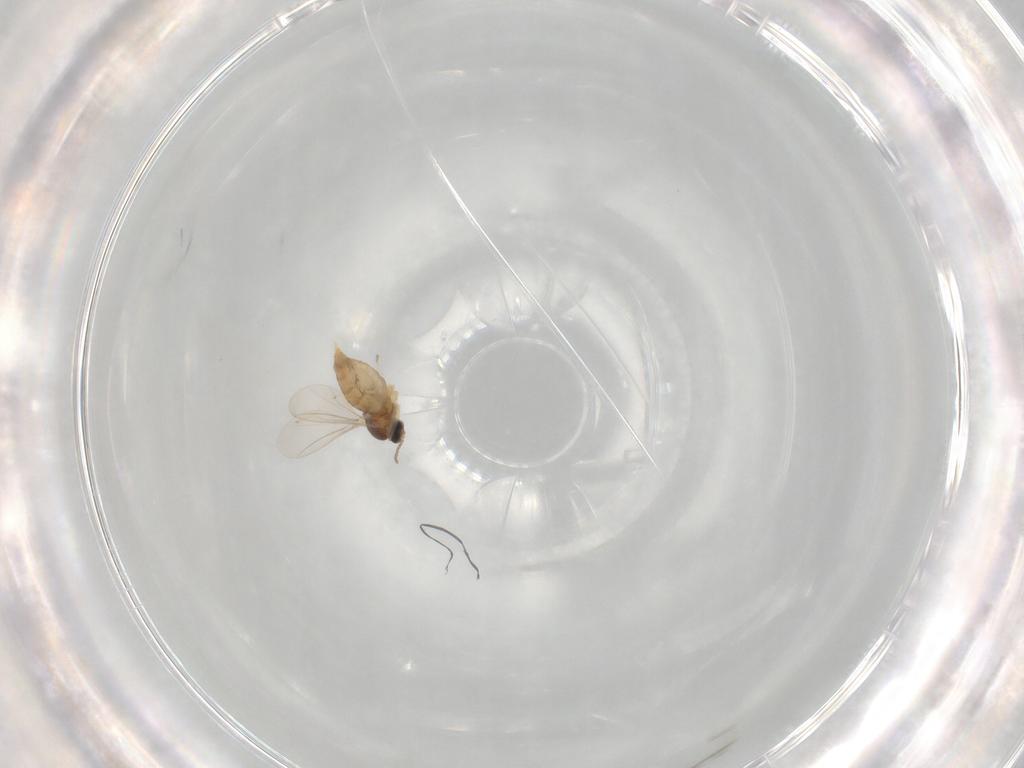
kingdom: Animalia
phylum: Arthropoda
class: Insecta
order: Diptera
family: Cecidomyiidae
